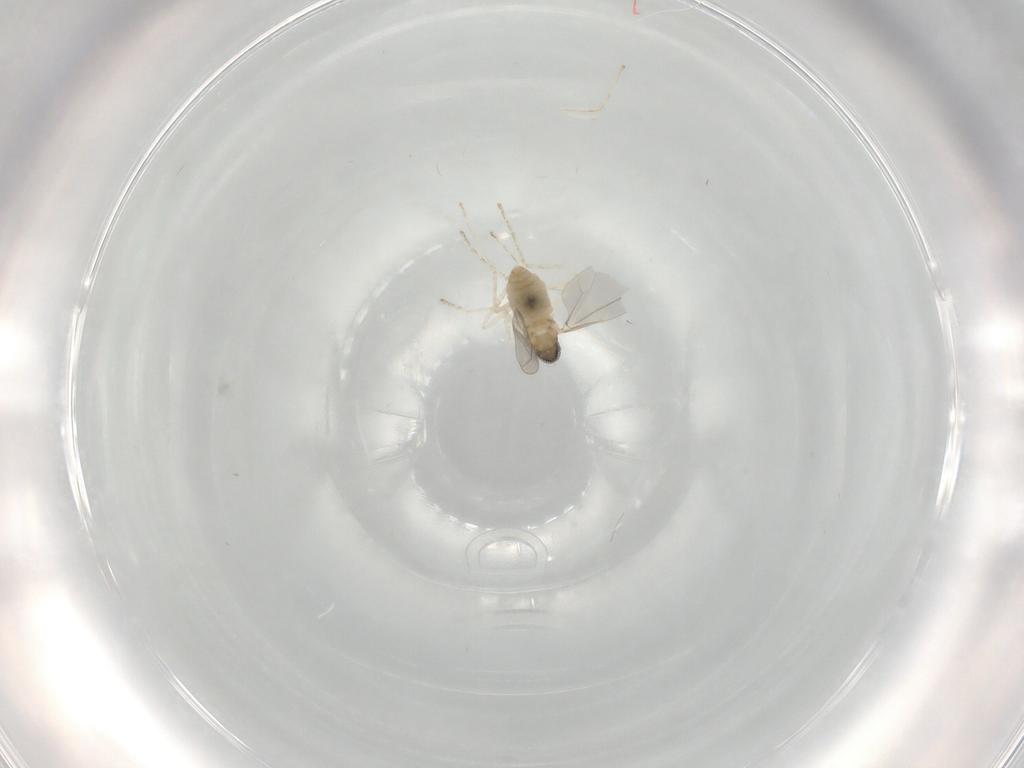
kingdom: Animalia
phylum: Arthropoda
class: Insecta
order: Diptera
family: Cecidomyiidae
